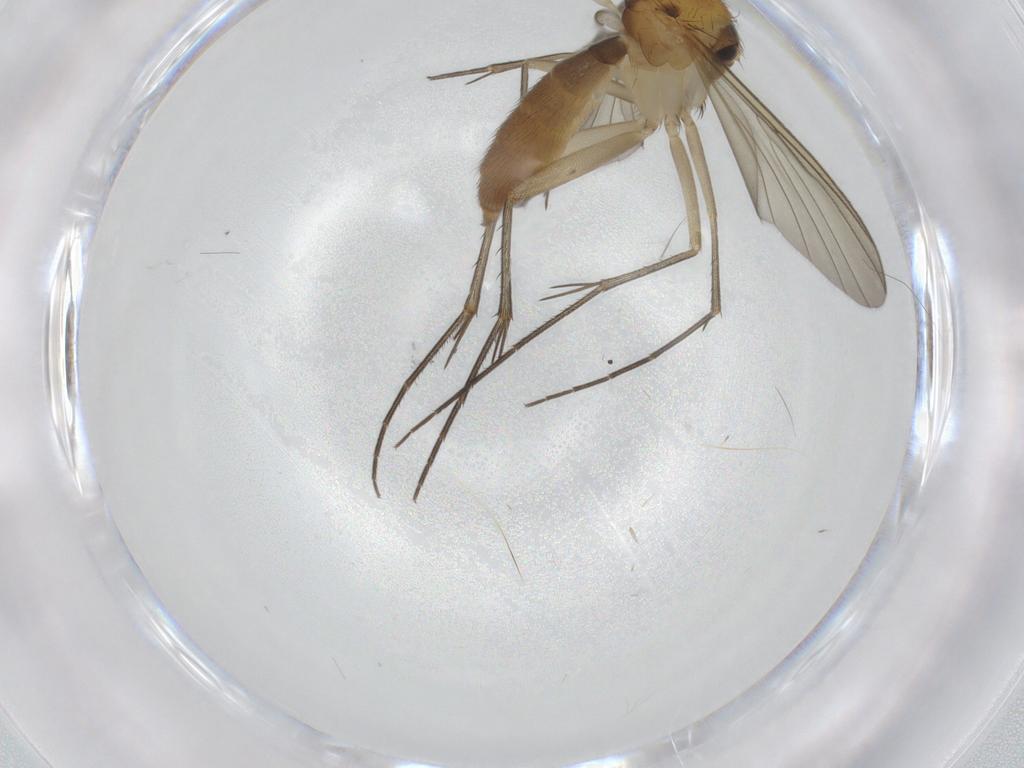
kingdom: Animalia
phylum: Arthropoda
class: Insecta
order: Diptera
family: Mycetophilidae
